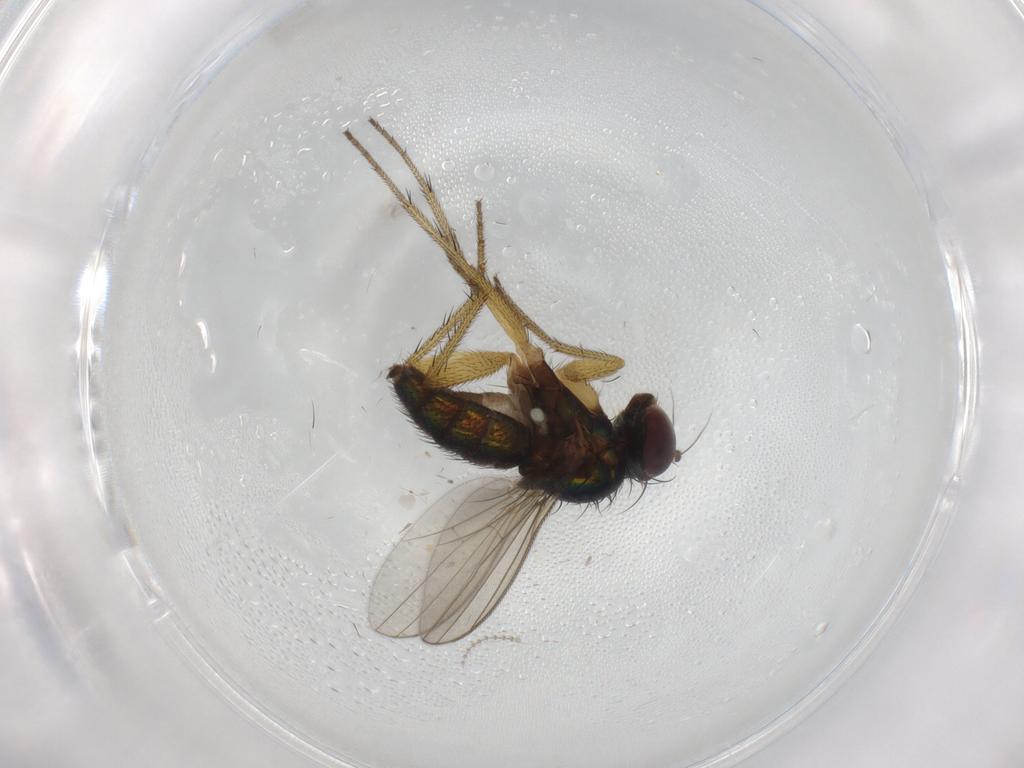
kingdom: Animalia
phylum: Arthropoda
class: Insecta
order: Diptera
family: Cecidomyiidae
